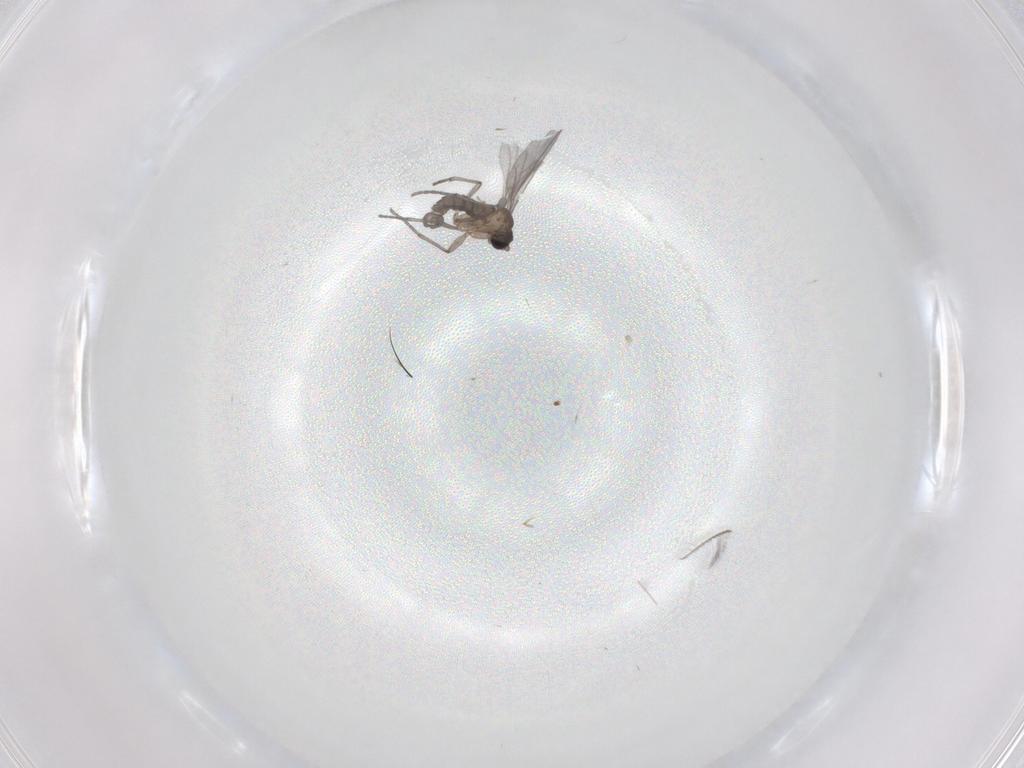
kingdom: Animalia
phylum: Arthropoda
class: Insecta
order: Diptera
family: Sciaridae
